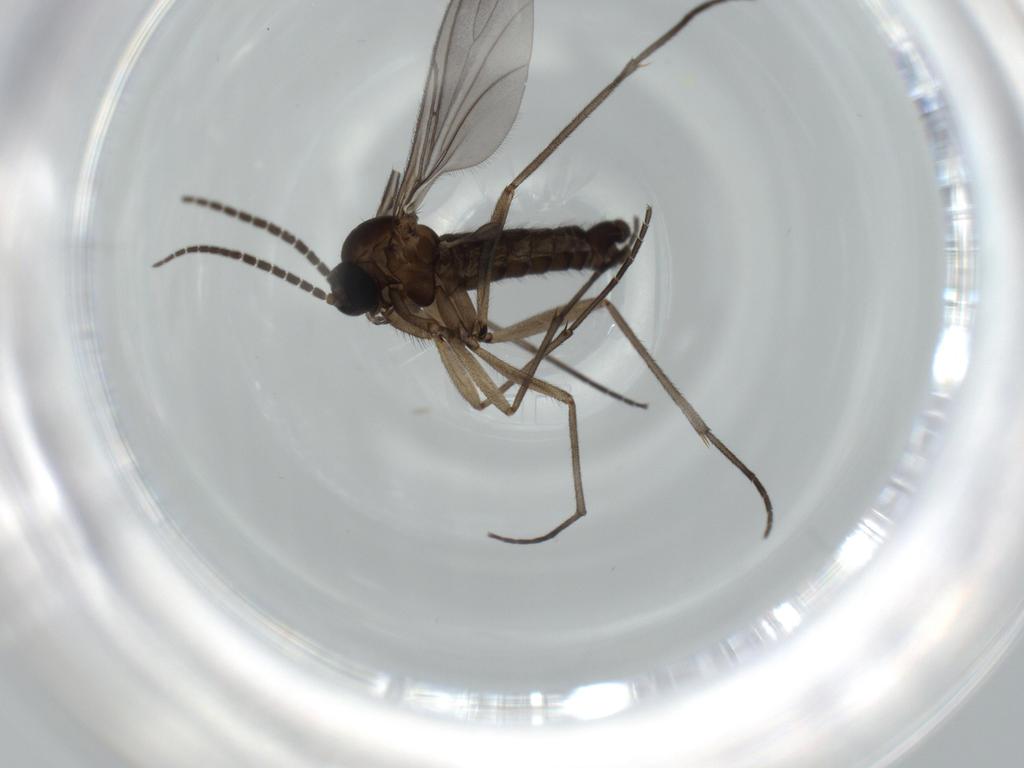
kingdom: Animalia
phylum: Arthropoda
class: Insecta
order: Diptera
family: Sciaridae
